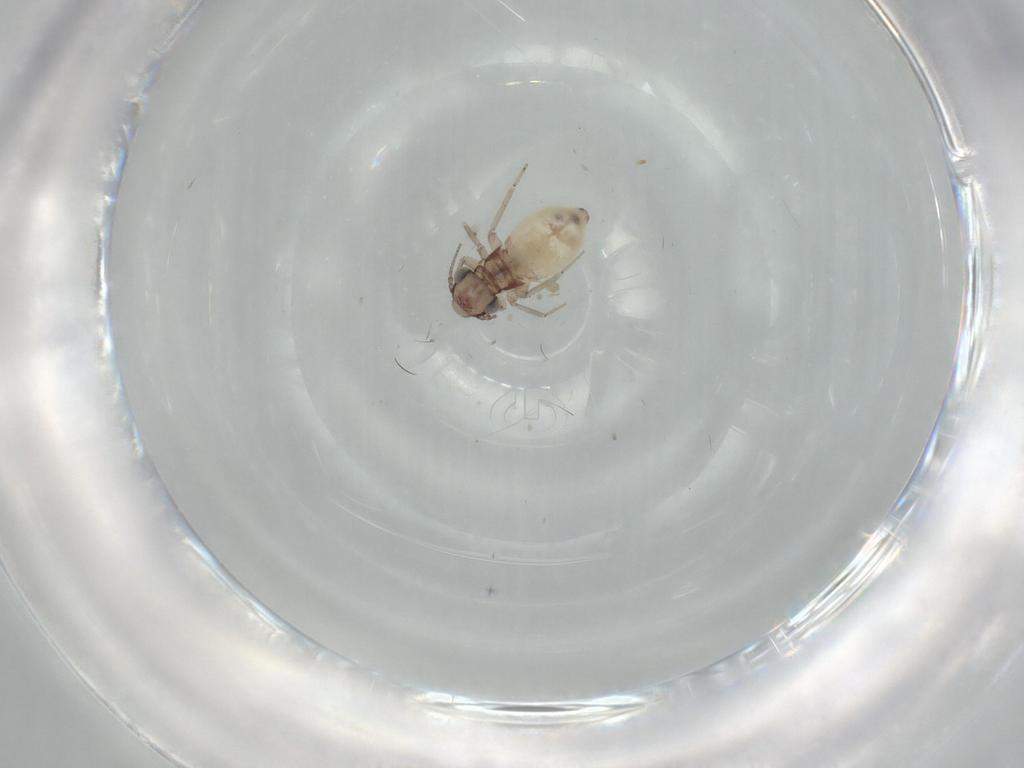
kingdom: Animalia
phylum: Arthropoda
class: Insecta
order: Psocodea
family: Lepidopsocidae
